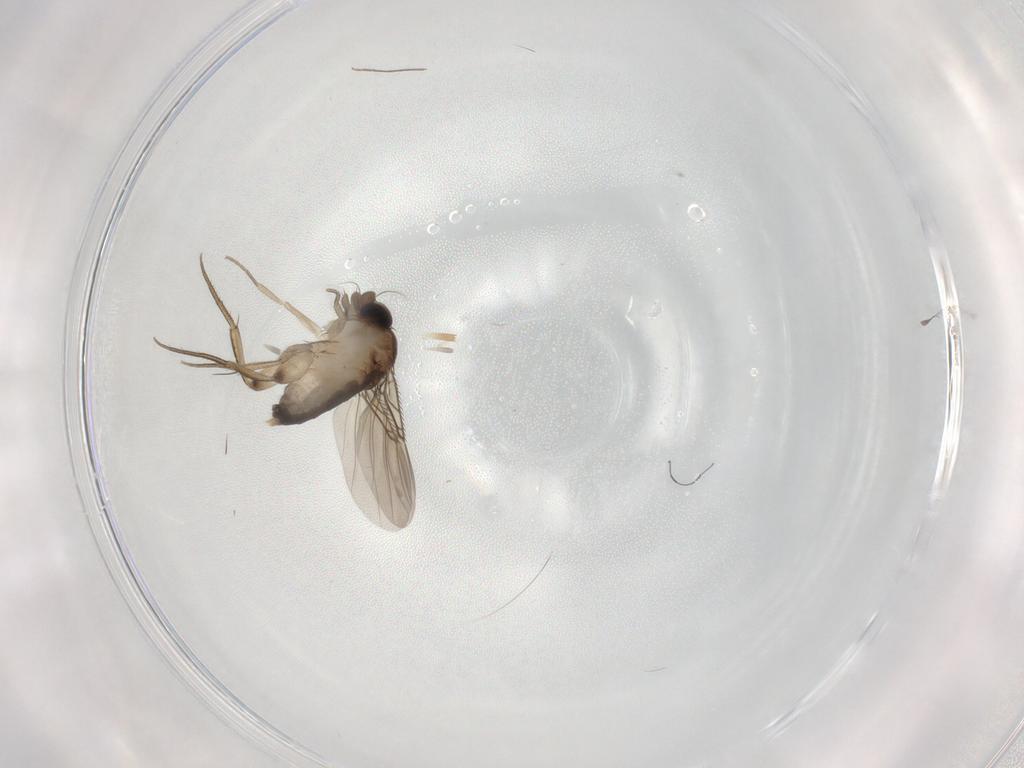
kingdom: Animalia
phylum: Arthropoda
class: Insecta
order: Diptera
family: Phoridae
